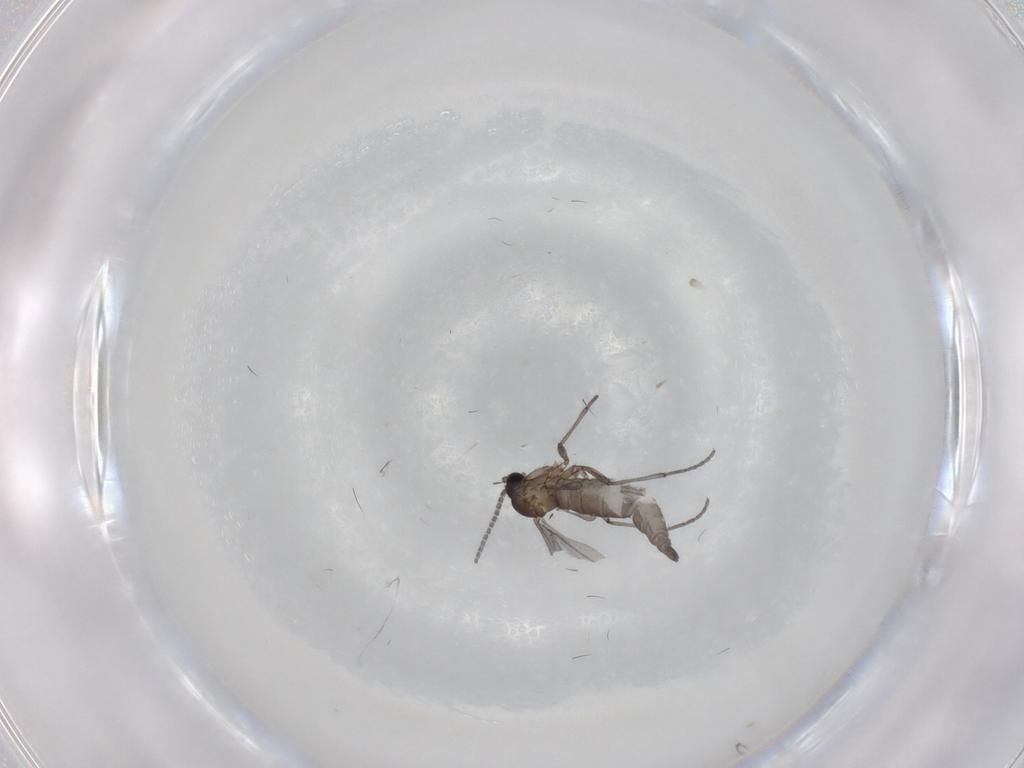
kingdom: Animalia
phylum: Arthropoda
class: Insecta
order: Diptera
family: Sciaridae
